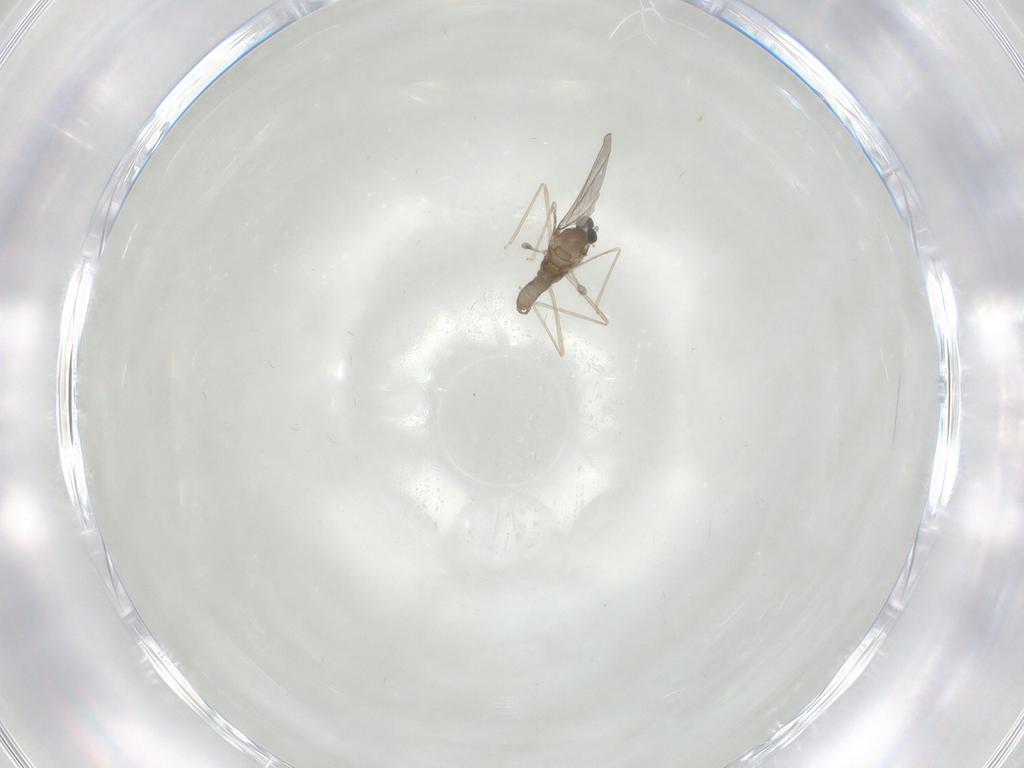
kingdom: Animalia
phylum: Arthropoda
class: Insecta
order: Diptera
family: Cecidomyiidae
